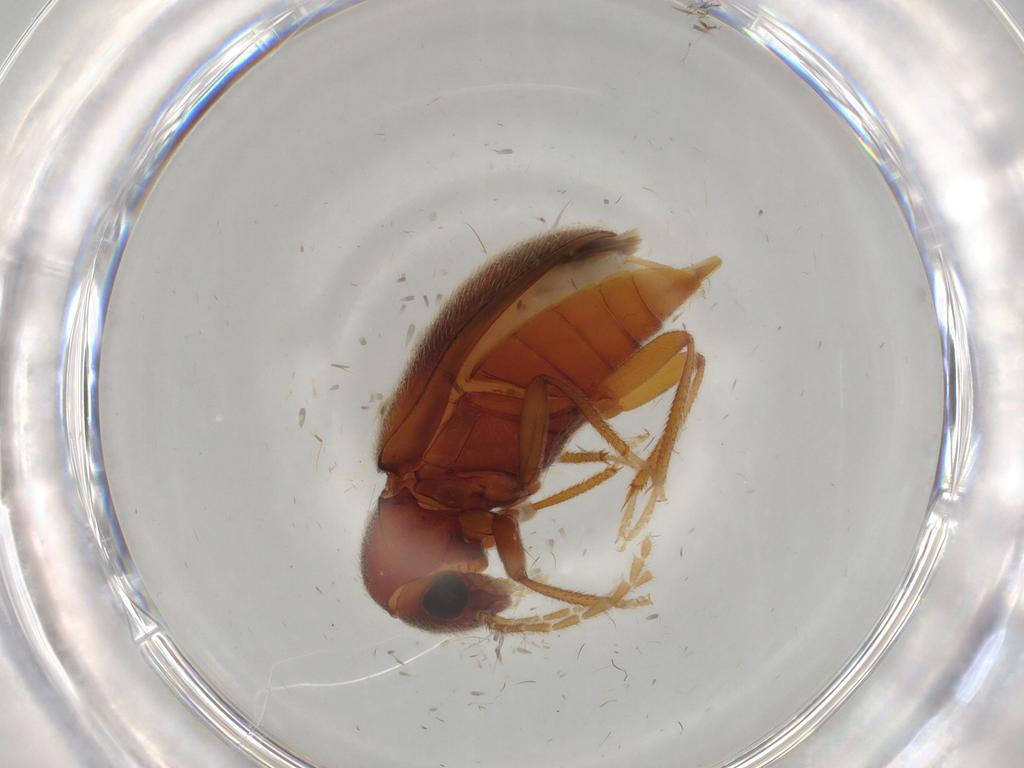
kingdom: Animalia
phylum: Arthropoda
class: Insecta
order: Coleoptera
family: Ptilodactylidae
